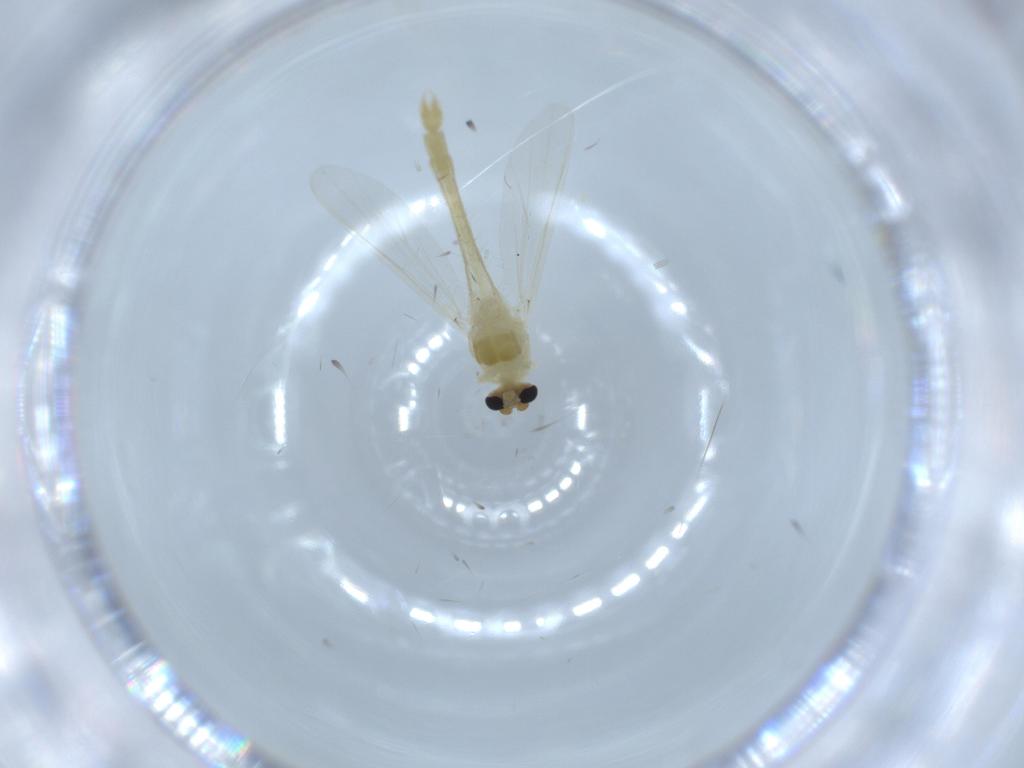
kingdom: Animalia
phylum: Arthropoda
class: Insecta
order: Diptera
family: Chironomidae
